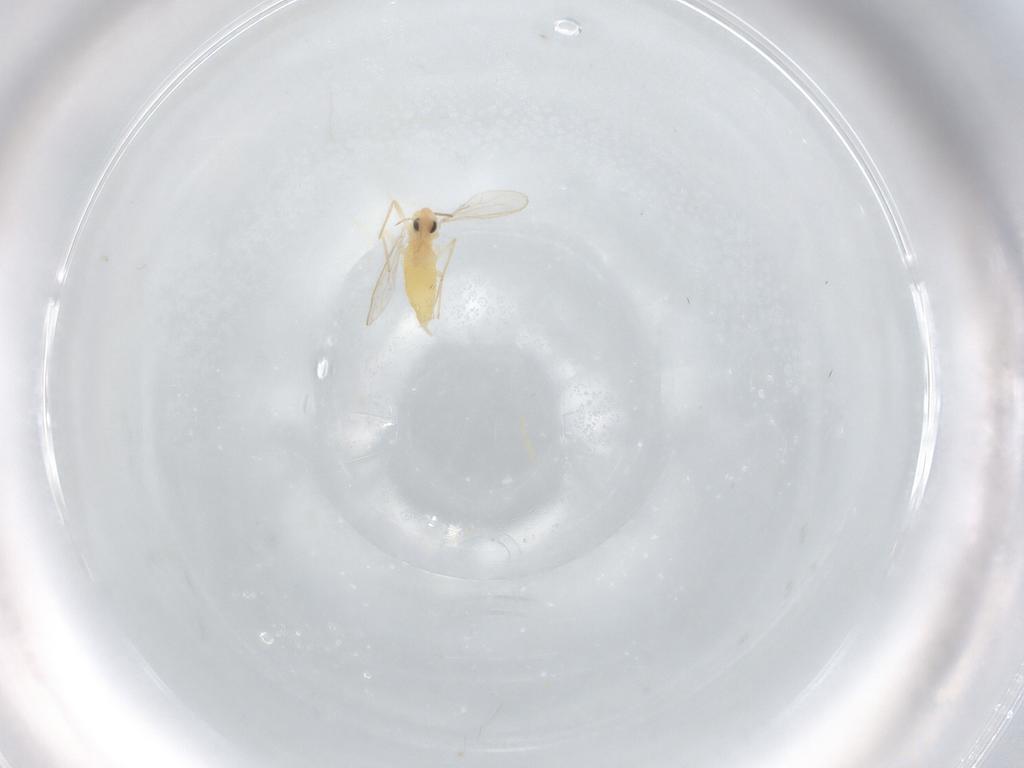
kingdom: Animalia
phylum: Arthropoda
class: Insecta
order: Diptera
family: Chironomidae
